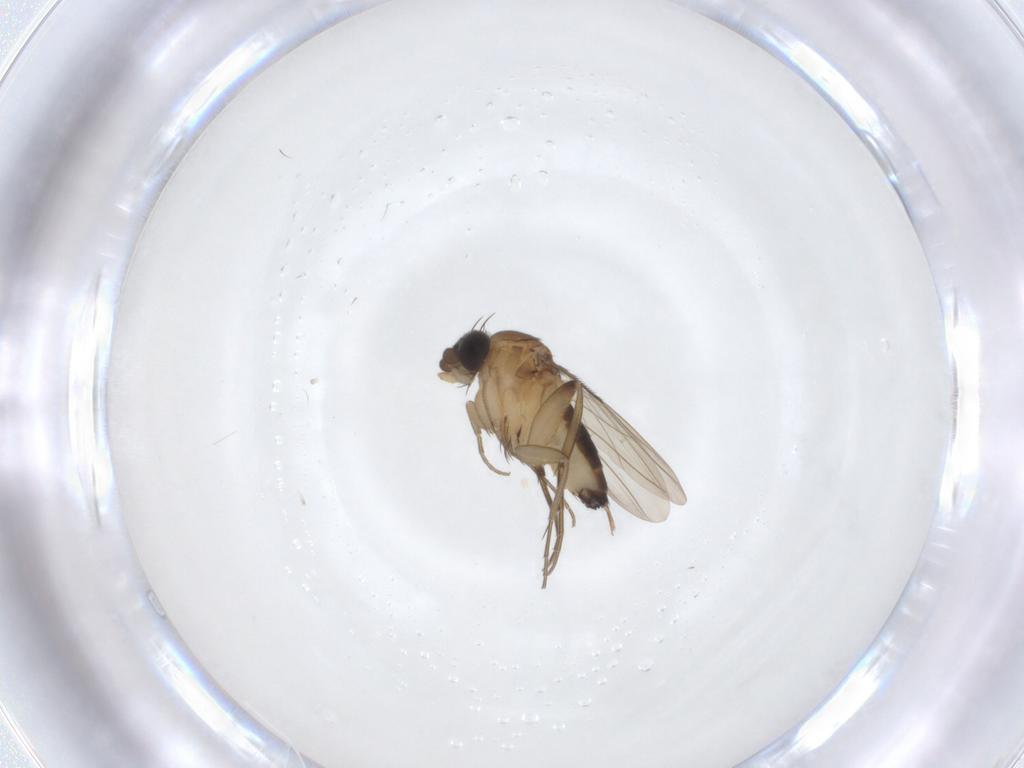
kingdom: Animalia
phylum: Arthropoda
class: Insecta
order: Diptera
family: Phoridae
